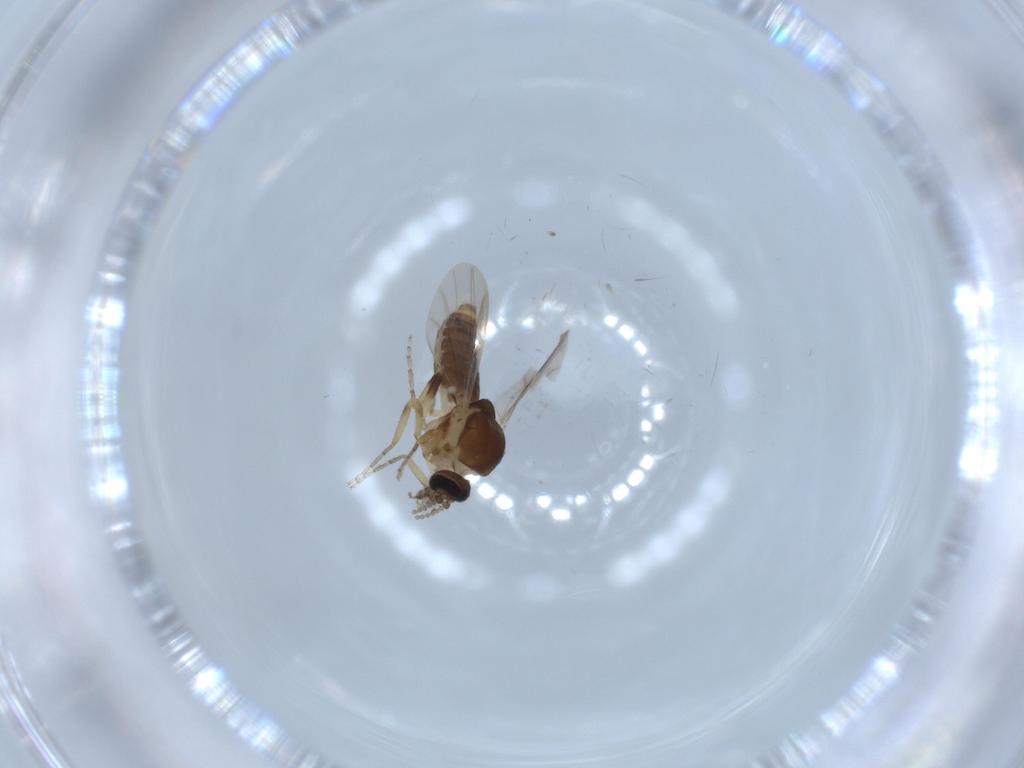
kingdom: Animalia
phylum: Arthropoda
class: Insecta
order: Diptera
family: Ceratopogonidae
